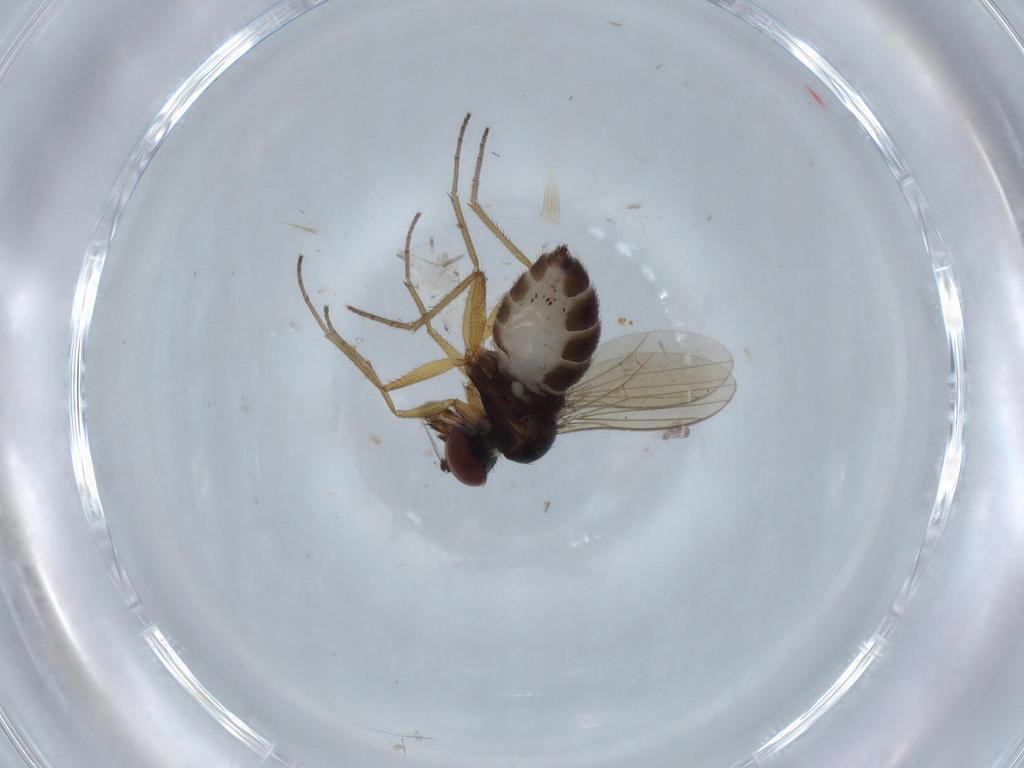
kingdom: Animalia
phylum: Arthropoda
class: Insecta
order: Diptera
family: Dolichopodidae
